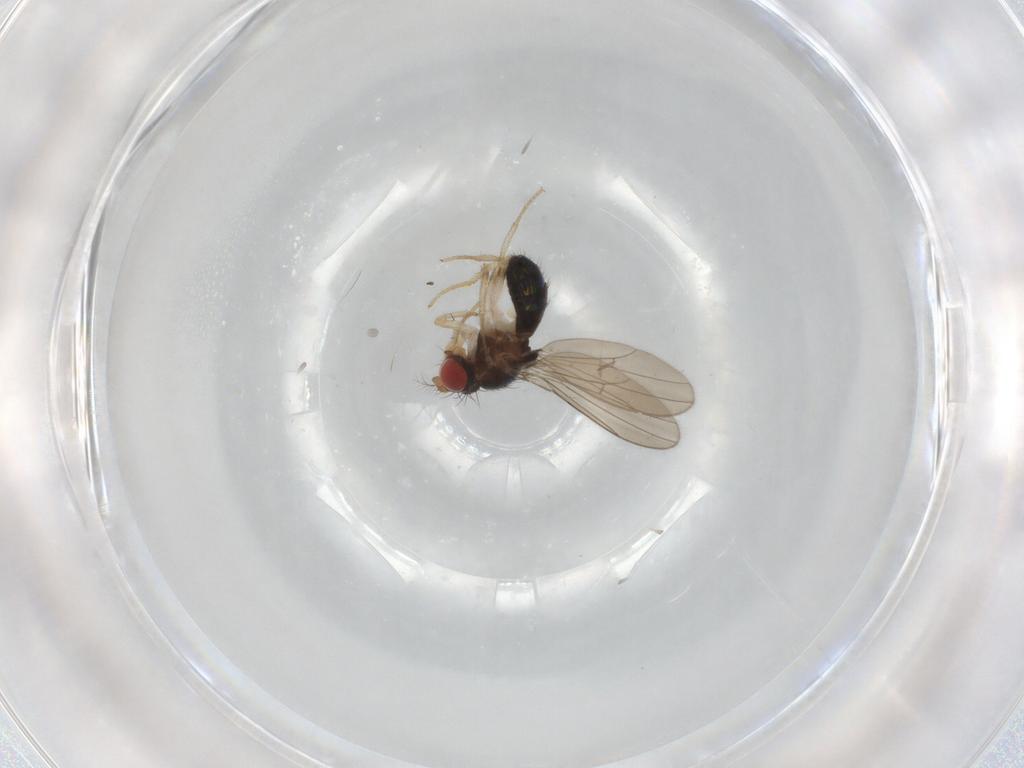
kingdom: Animalia
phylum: Arthropoda
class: Insecta
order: Diptera
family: Drosophilidae
